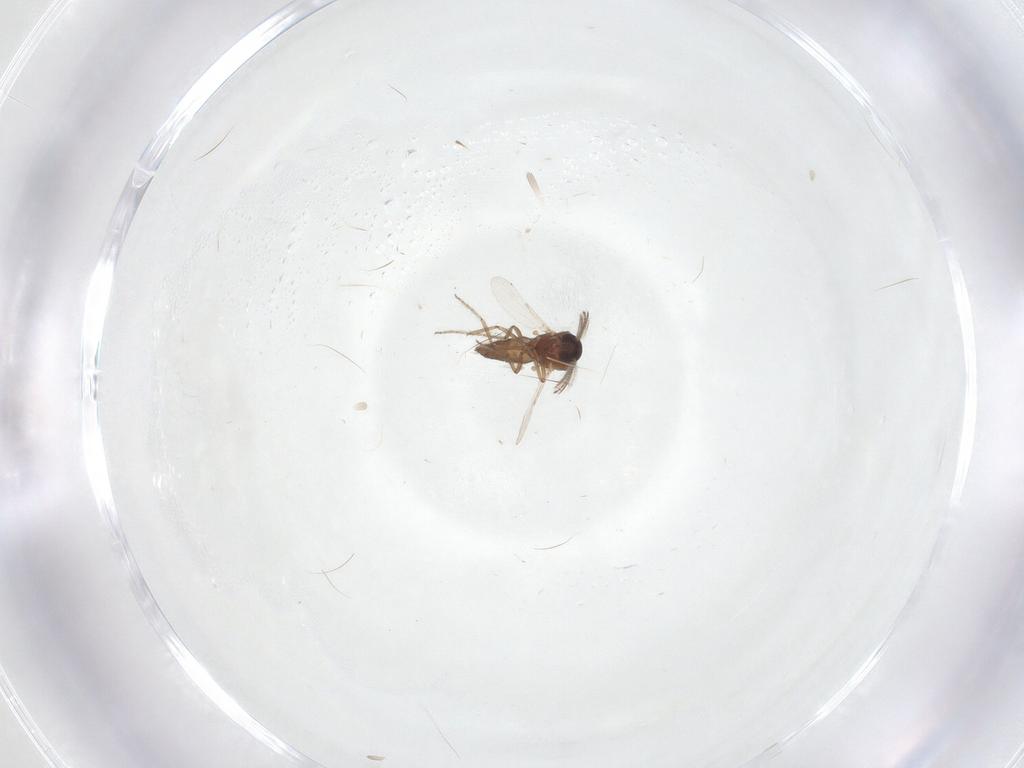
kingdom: Animalia
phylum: Arthropoda
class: Insecta
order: Diptera
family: Ceratopogonidae
